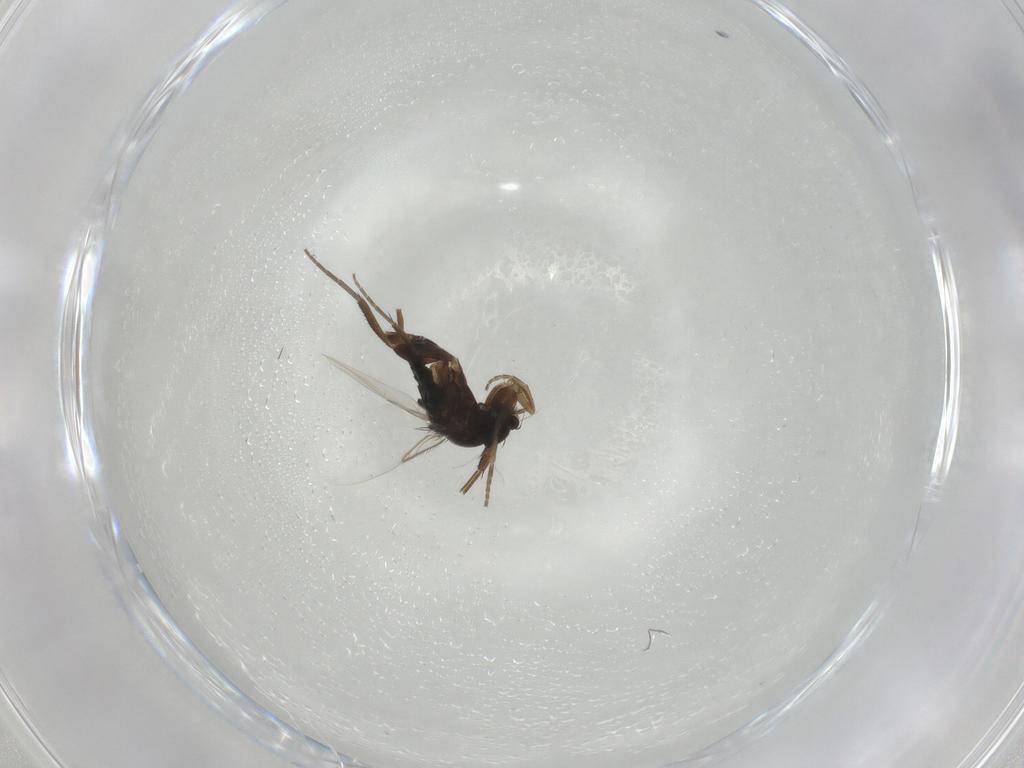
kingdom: Animalia
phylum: Arthropoda
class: Insecta
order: Diptera
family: Phoridae
